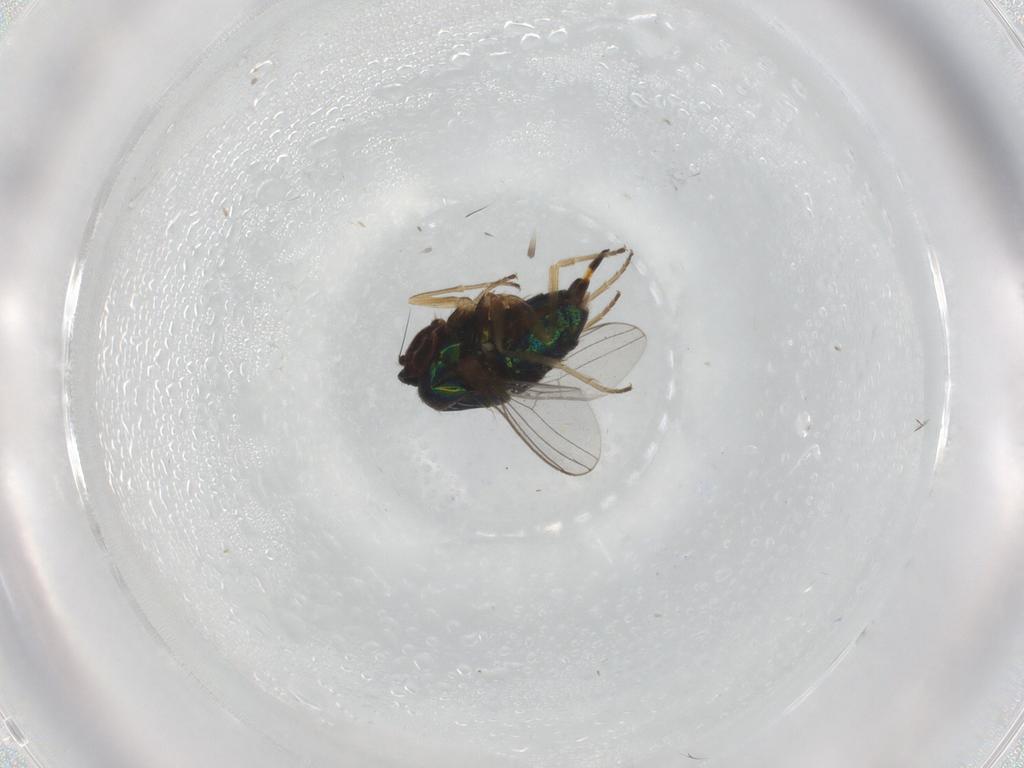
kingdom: Animalia
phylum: Arthropoda
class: Insecta
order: Diptera
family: Dolichopodidae
